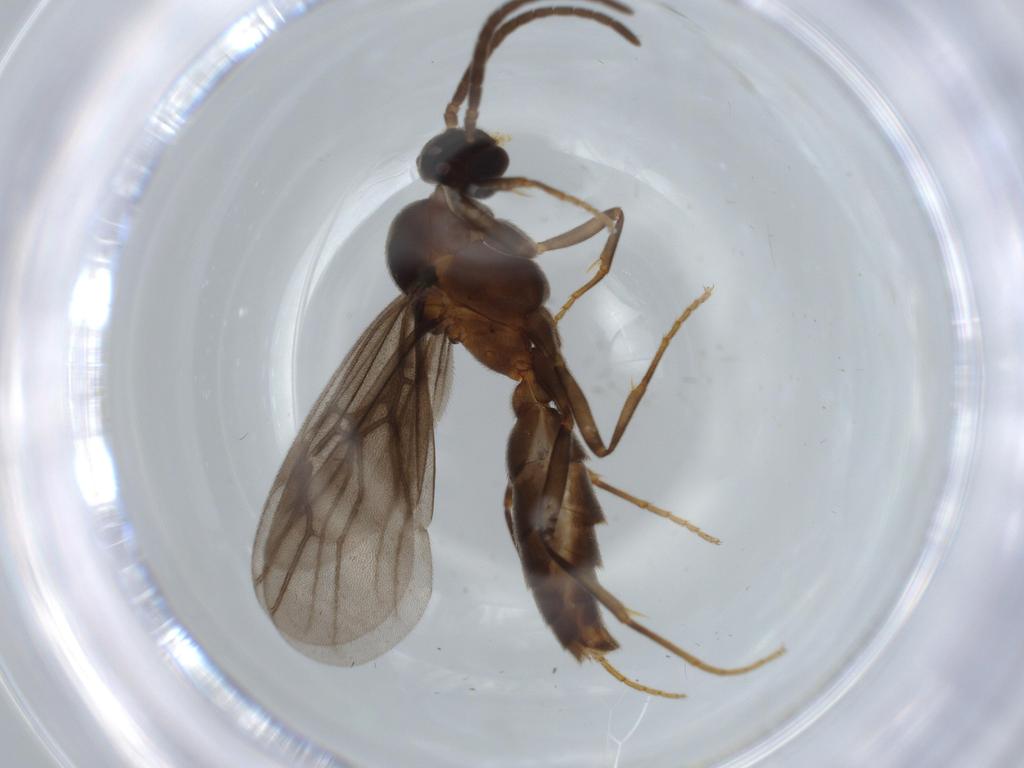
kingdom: Animalia
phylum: Arthropoda
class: Insecta
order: Hymenoptera
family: Formicidae
